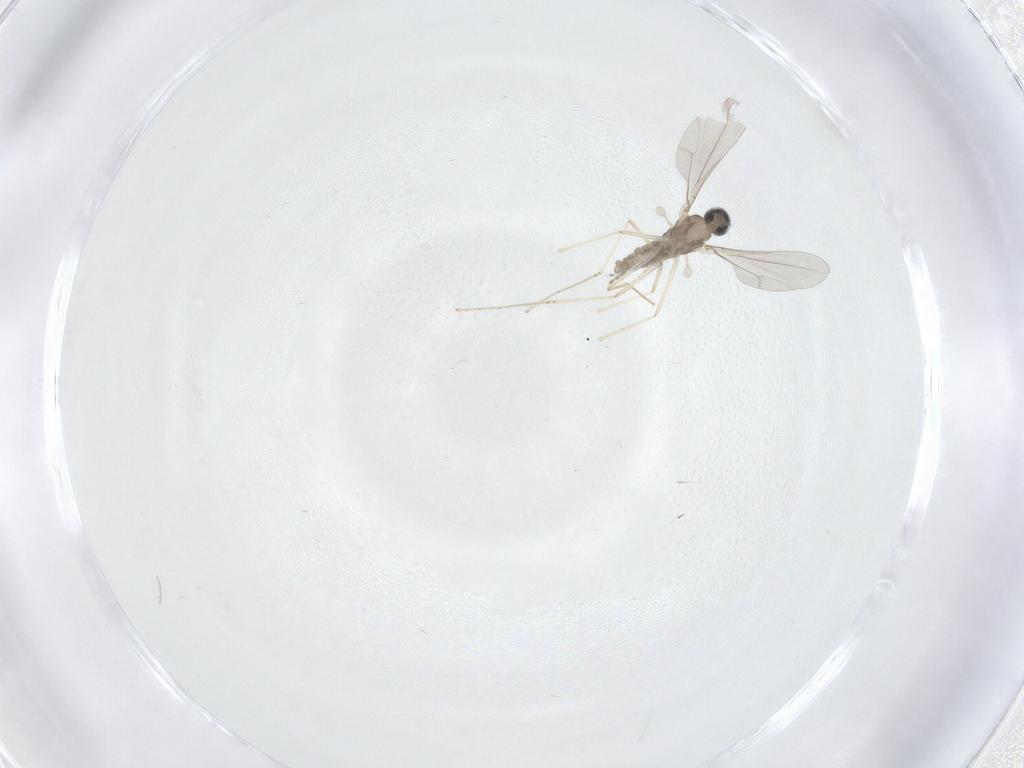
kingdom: Animalia
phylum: Arthropoda
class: Insecta
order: Diptera
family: Cecidomyiidae
